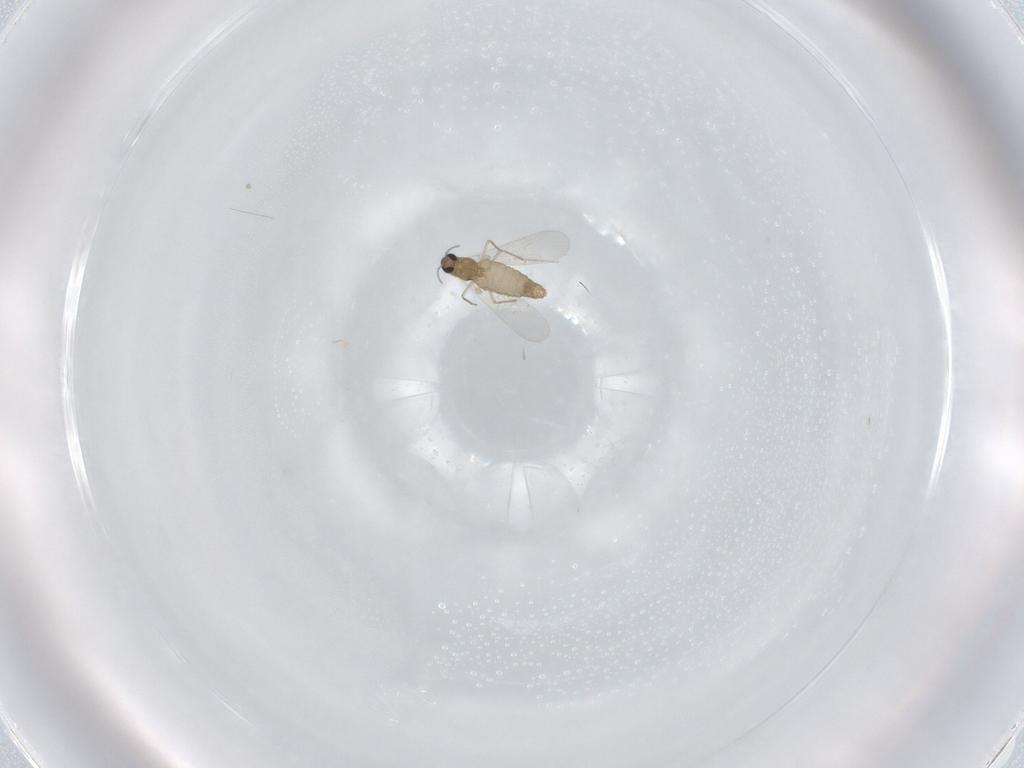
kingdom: Animalia
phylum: Arthropoda
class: Insecta
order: Diptera
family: Chironomidae
